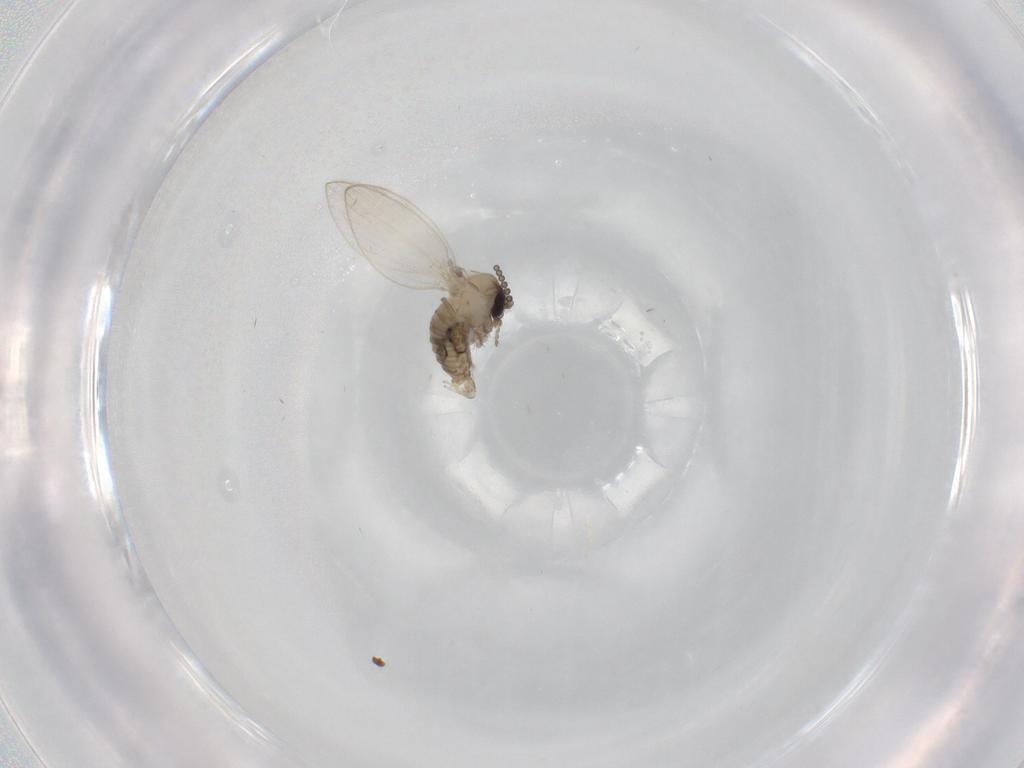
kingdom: Animalia
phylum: Arthropoda
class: Insecta
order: Diptera
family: Psychodidae
